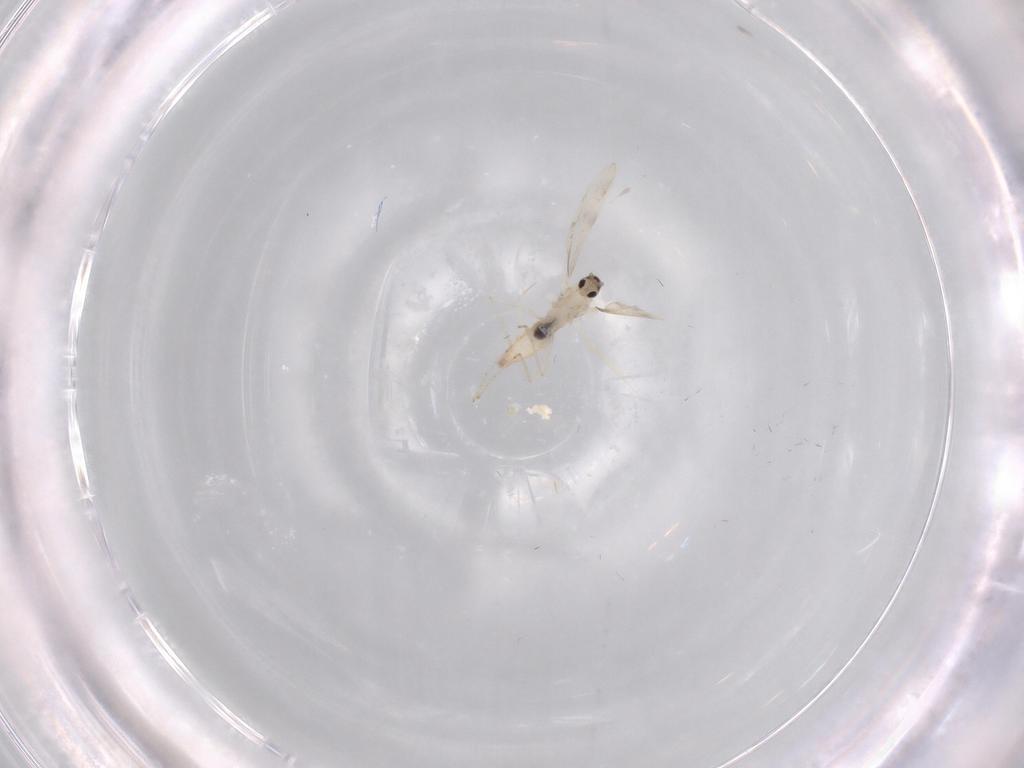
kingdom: Animalia
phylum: Arthropoda
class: Insecta
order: Diptera
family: Cecidomyiidae
